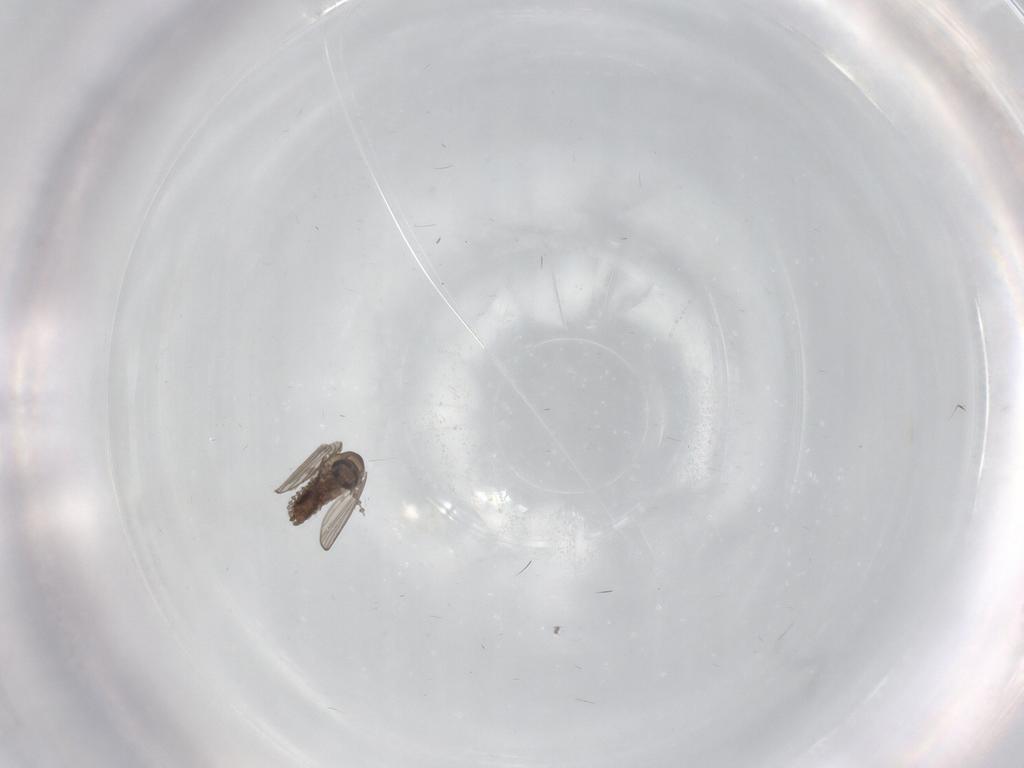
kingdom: Animalia
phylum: Arthropoda
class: Insecta
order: Diptera
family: Psychodidae
